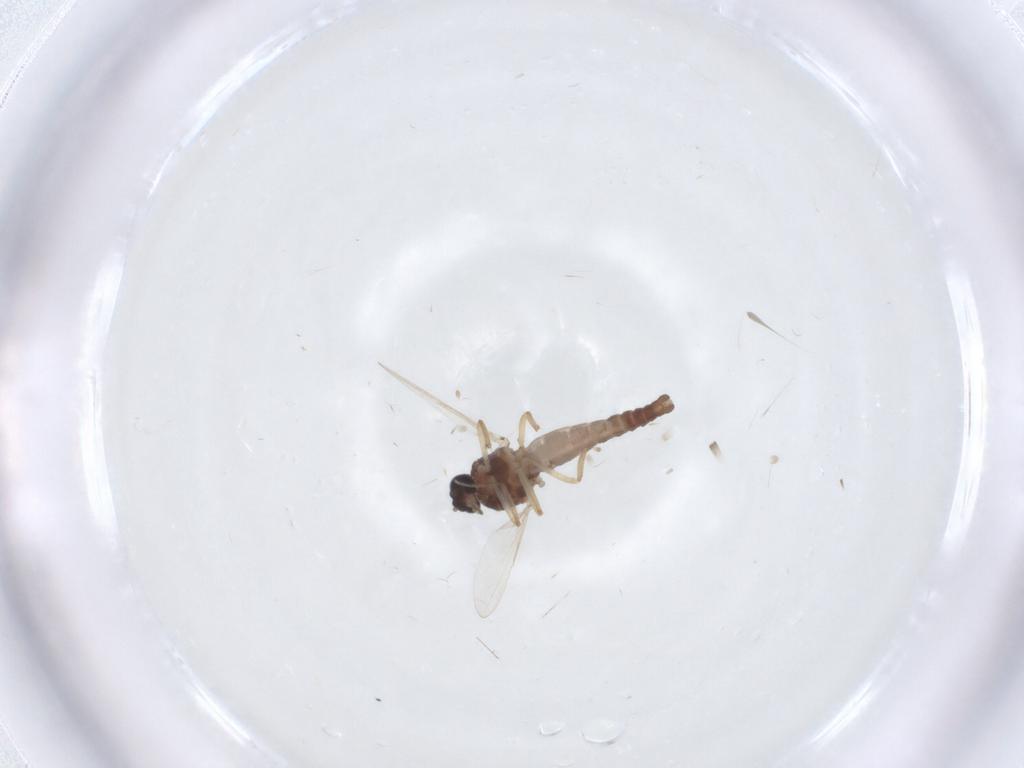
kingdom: Animalia
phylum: Arthropoda
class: Insecta
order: Diptera
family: Ceratopogonidae
